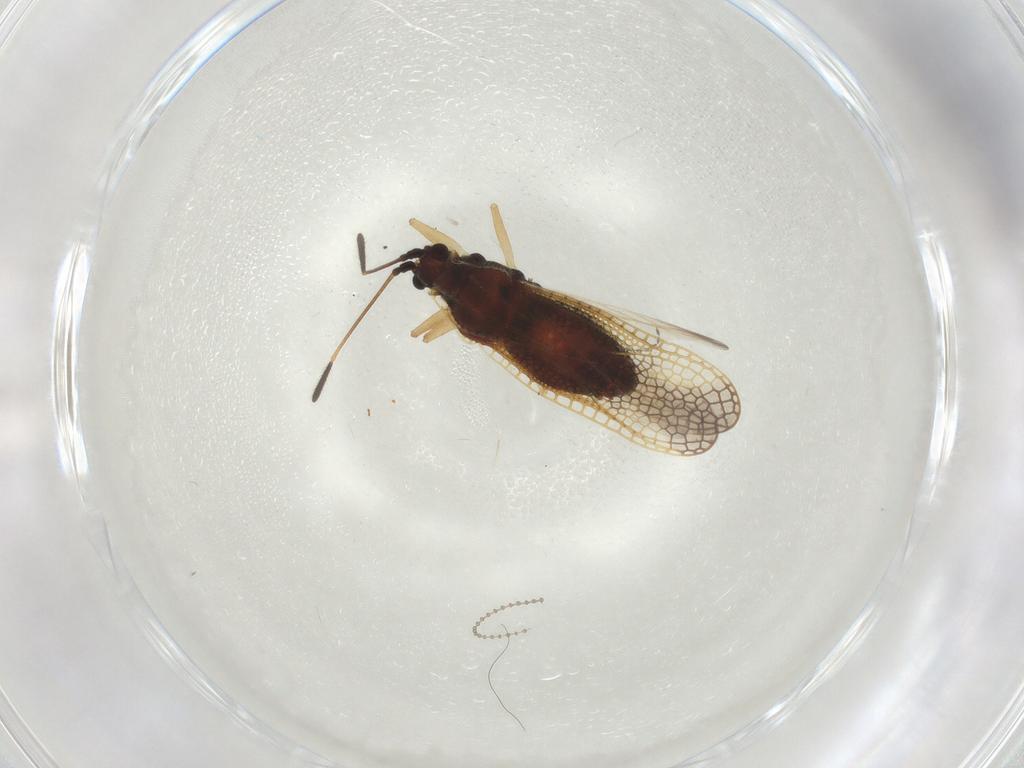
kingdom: Animalia
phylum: Arthropoda
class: Insecta
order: Hemiptera
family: Tingidae
